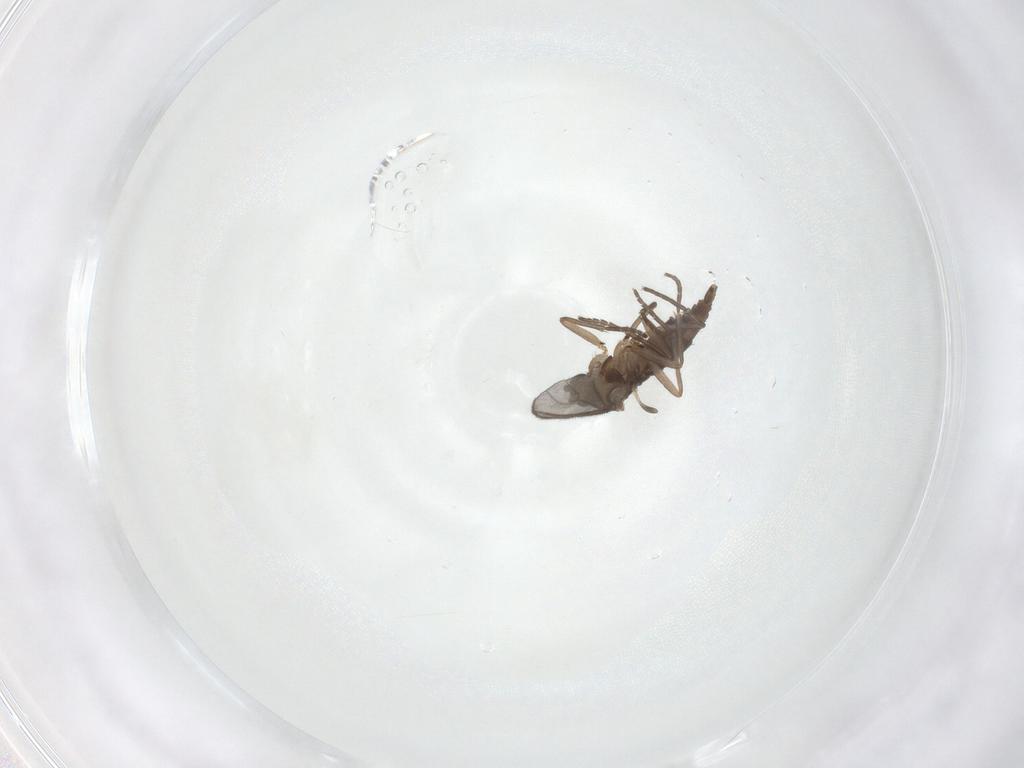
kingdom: Animalia
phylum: Arthropoda
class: Insecta
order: Diptera
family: Sciaridae
